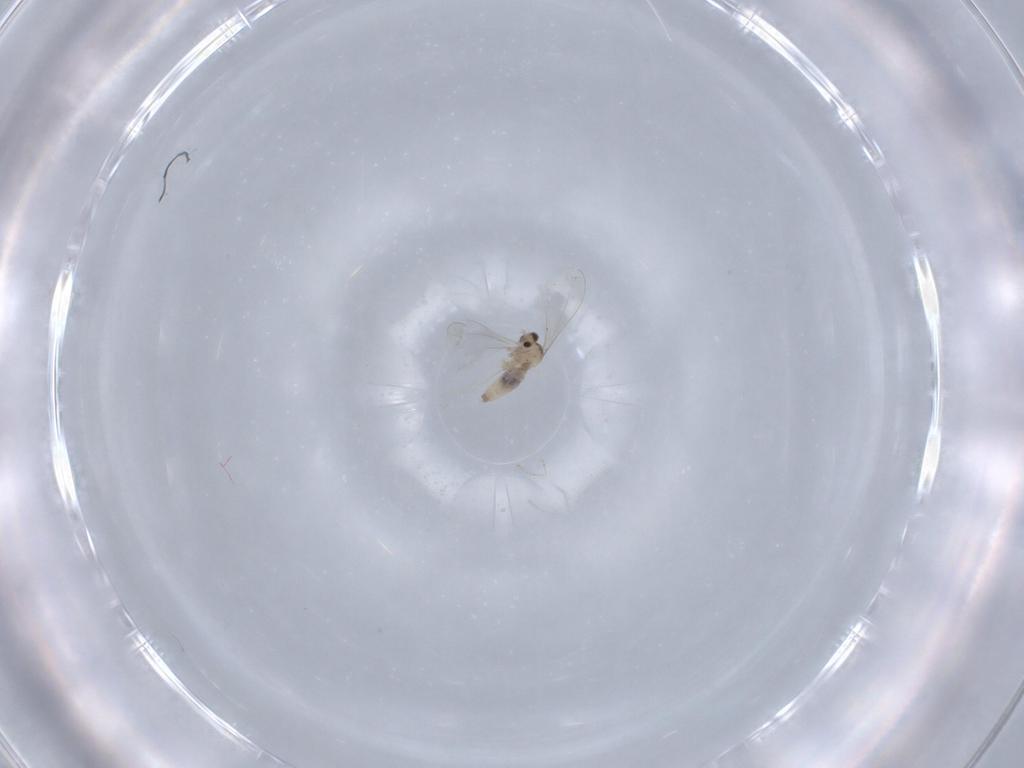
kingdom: Animalia
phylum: Arthropoda
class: Insecta
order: Diptera
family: Cecidomyiidae
